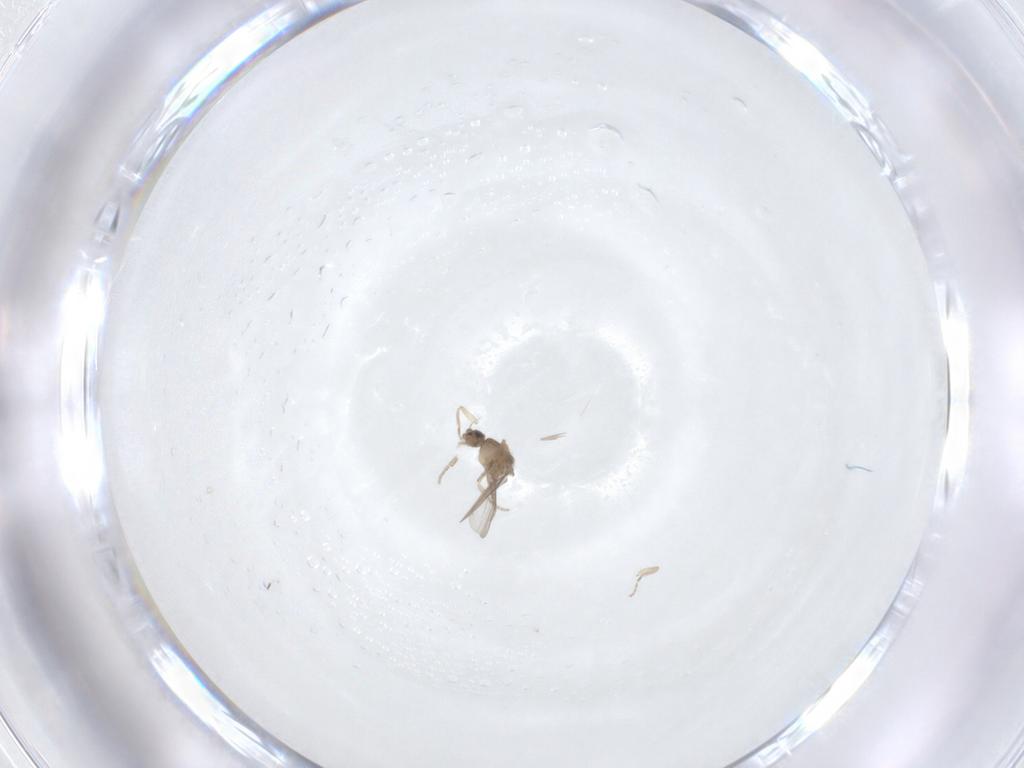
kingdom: Animalia
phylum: Arthropoda
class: Insecta
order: Diptera
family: Phoridae
